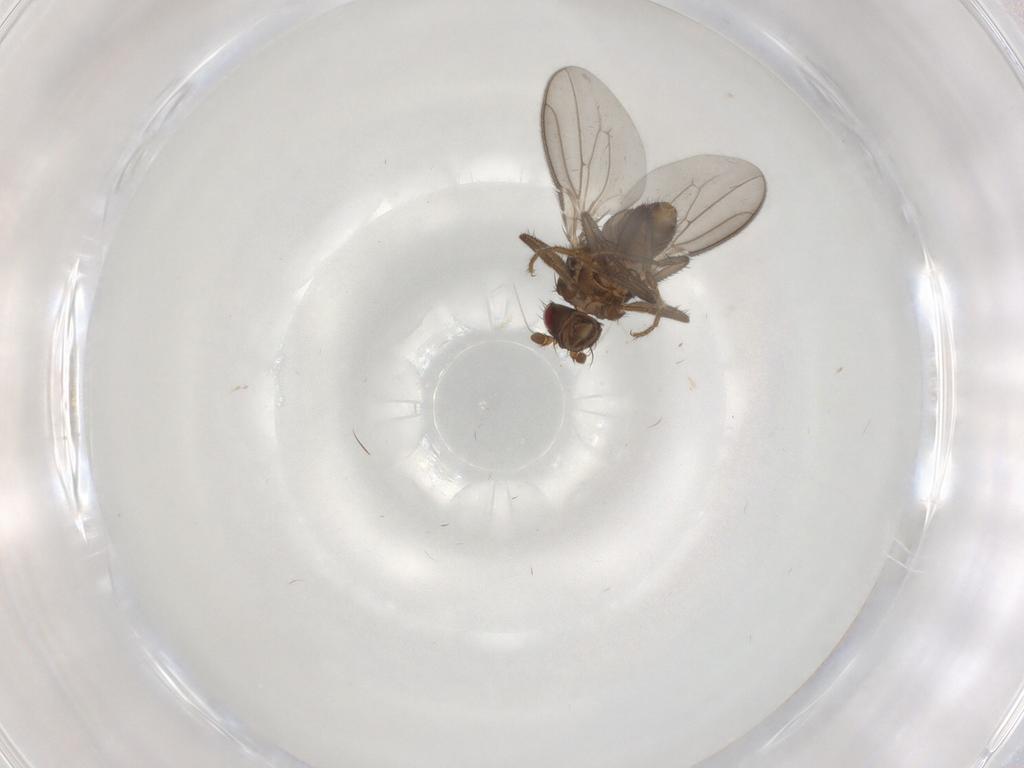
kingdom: Animalia
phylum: Arthropoda
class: Insecta
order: Diptera
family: Sphaeroceridae
